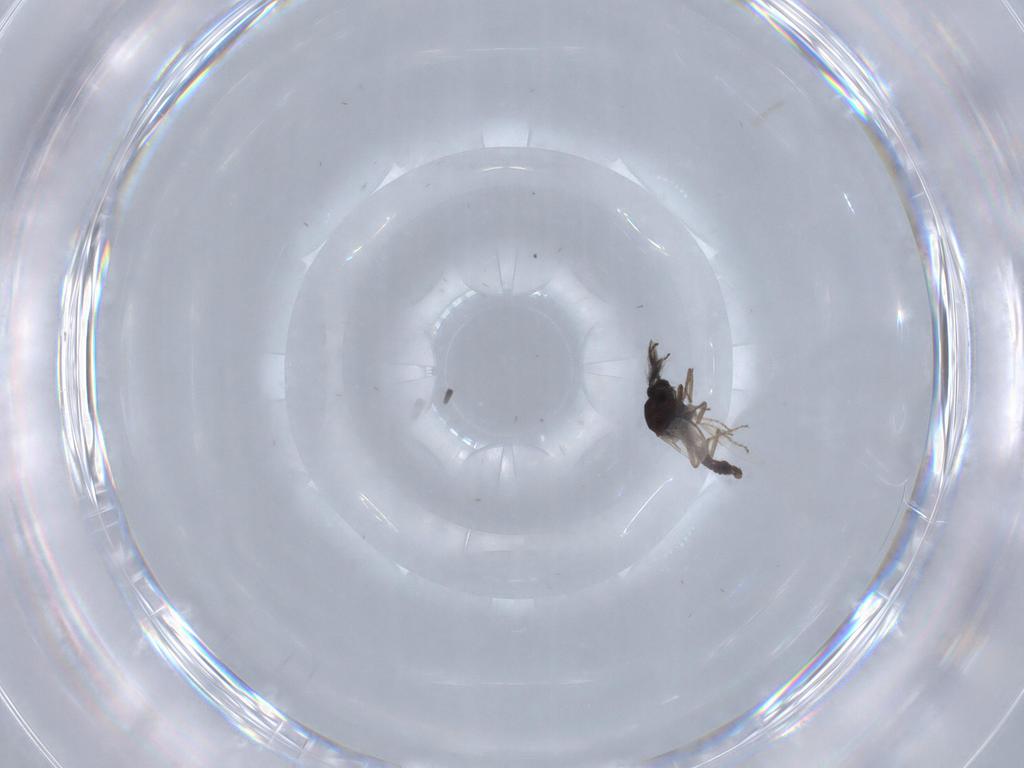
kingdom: Animalia
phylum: Arthropoda
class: Insecta
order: Diptera
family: Ceratopogonidae
